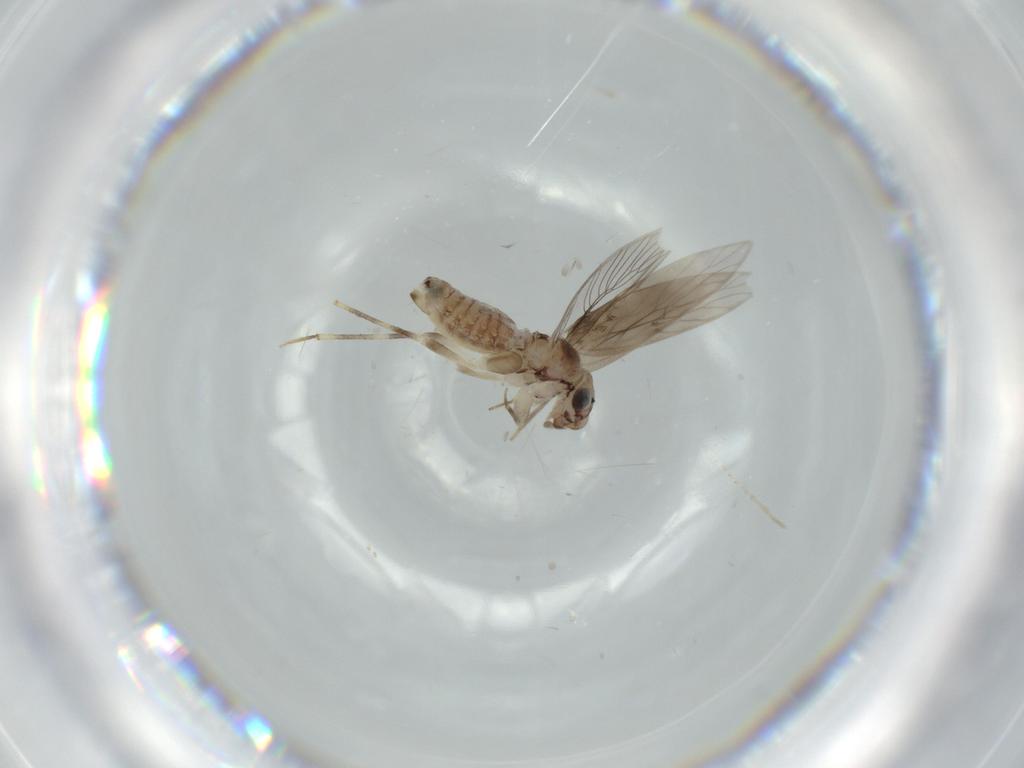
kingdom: Animalia
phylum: Arthropoda
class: Insecta
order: Psocodea
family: Lepidopsocidae
